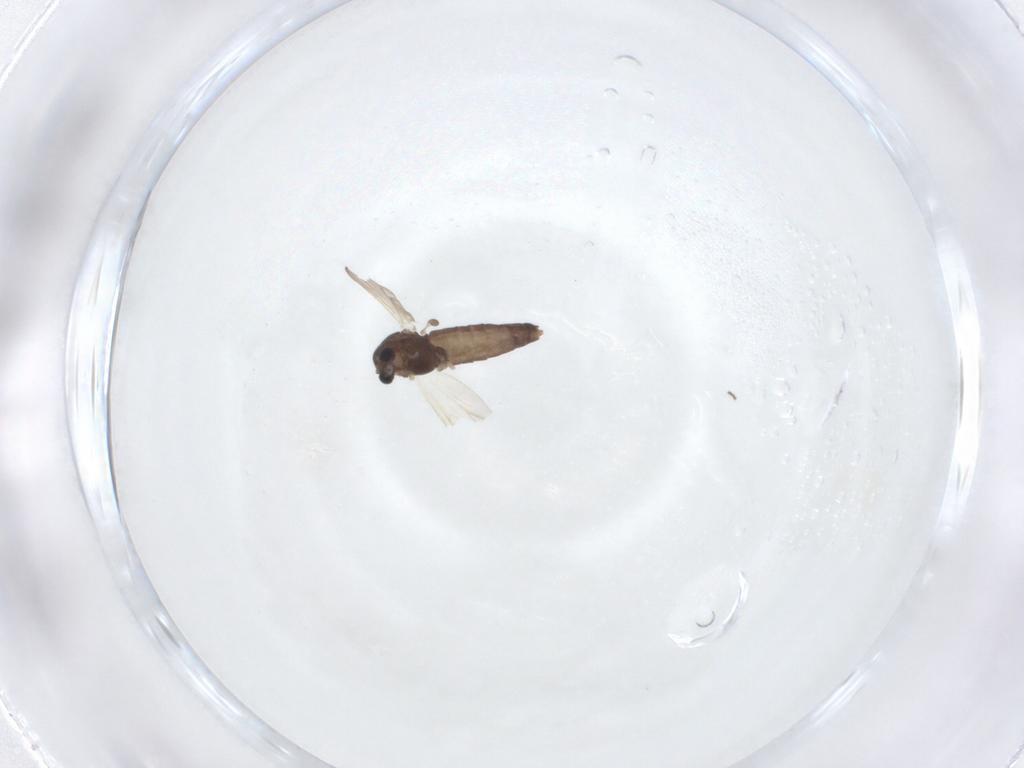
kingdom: Animalia
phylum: Arthropoda
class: Insecta
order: Diptera
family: Chironomidae
